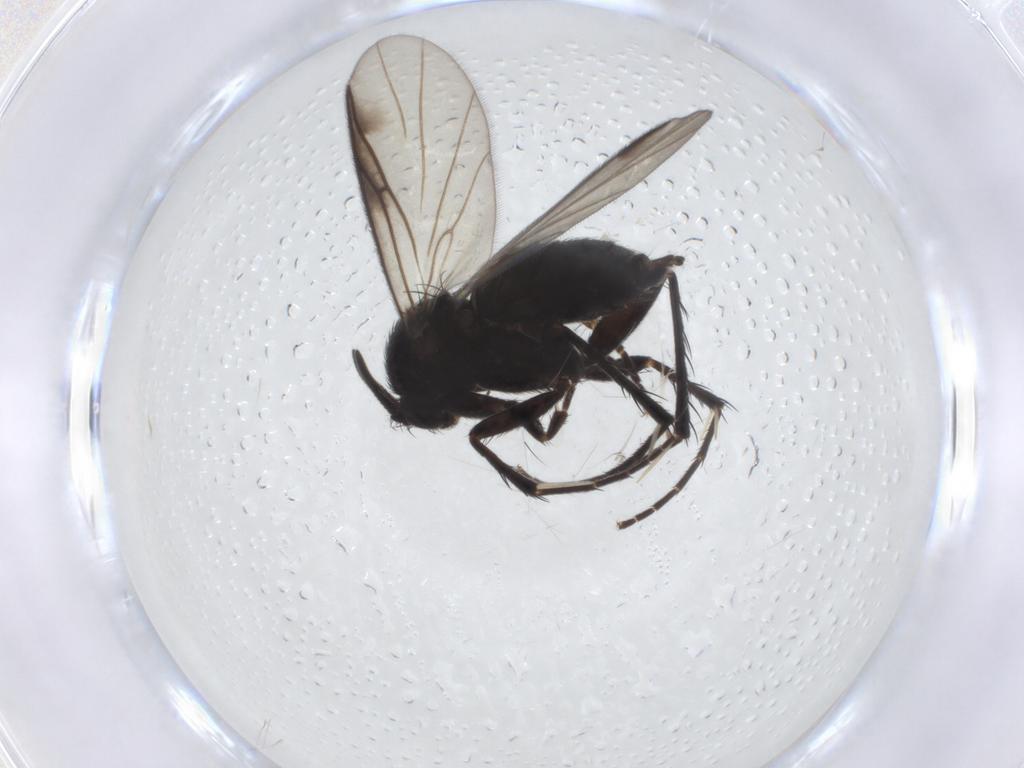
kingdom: Animalia
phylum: Arthropoda
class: Insecta
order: Diptera
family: Mycetophilidae
